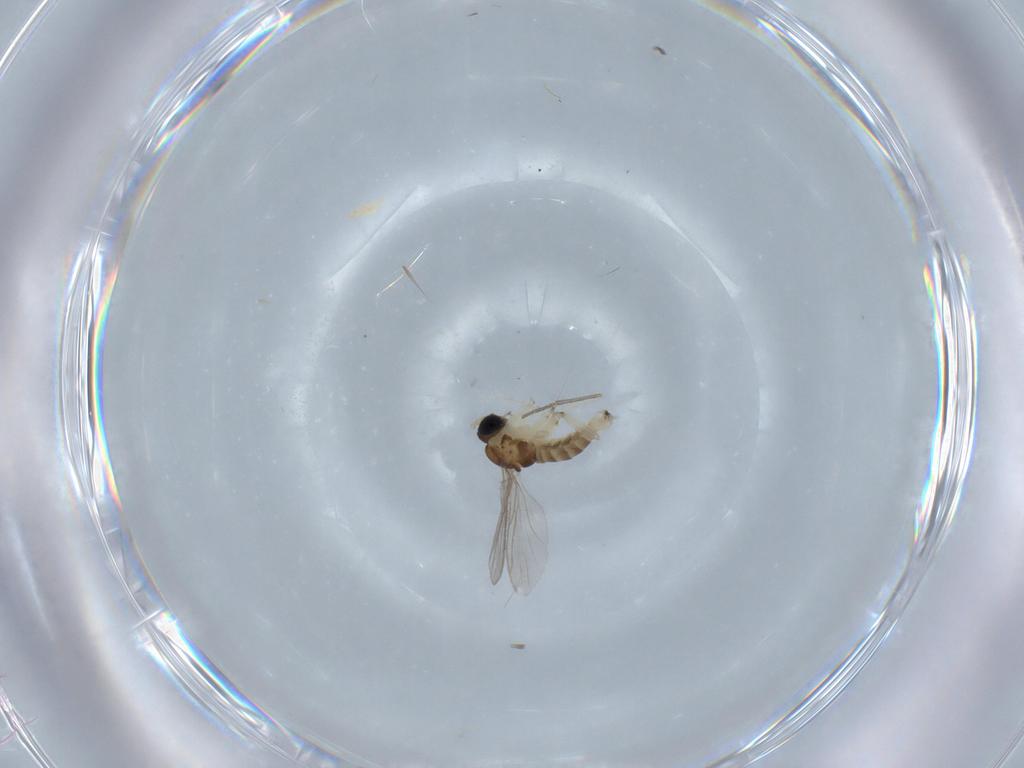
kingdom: Animalia
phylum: Arthropoda
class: Insecta
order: Diptera
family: Sciaridae
